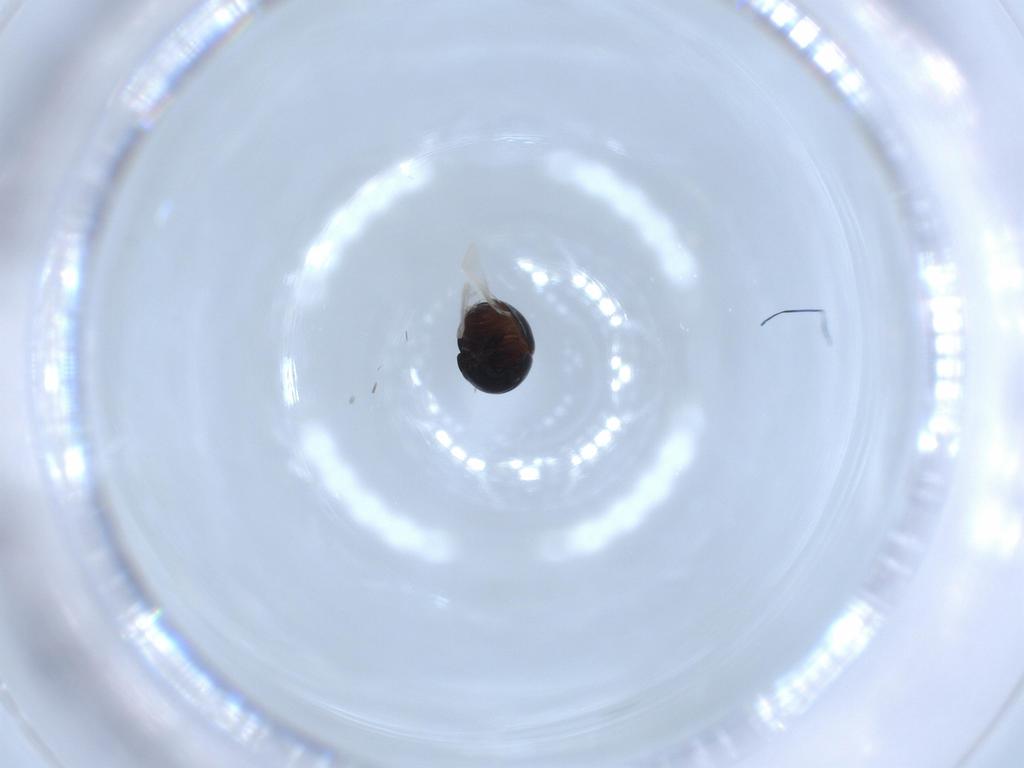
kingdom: Animalia
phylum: Arthropoda
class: Insecta
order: Coleoptera
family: Cybocephalidae
